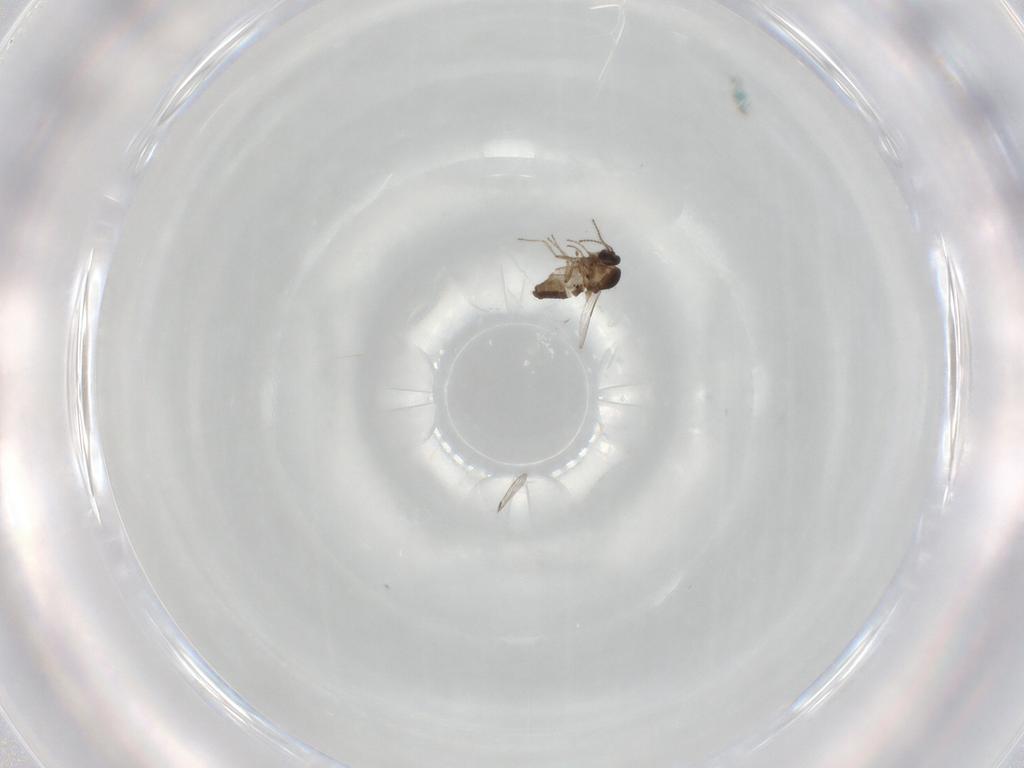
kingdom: Animalia
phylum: Arthropoda
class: Insecta
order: Diptera
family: Ceratopogonidae
